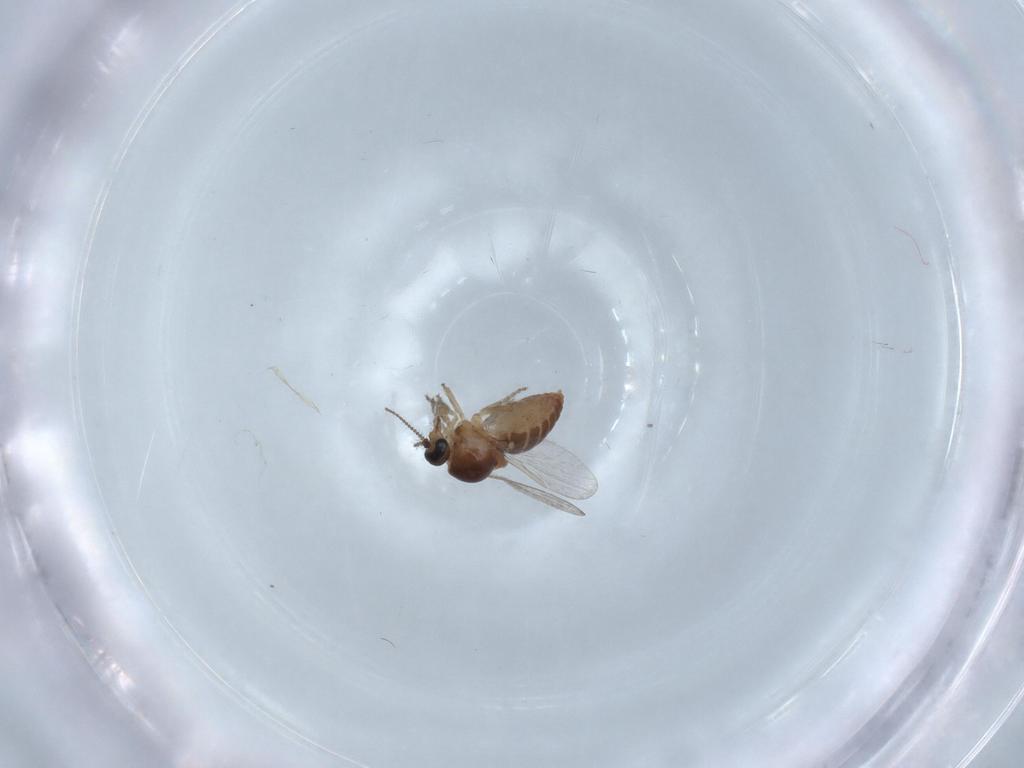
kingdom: Animalia
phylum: Arthropoda
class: Insecta
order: Diptera
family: Ceratopogonidae
